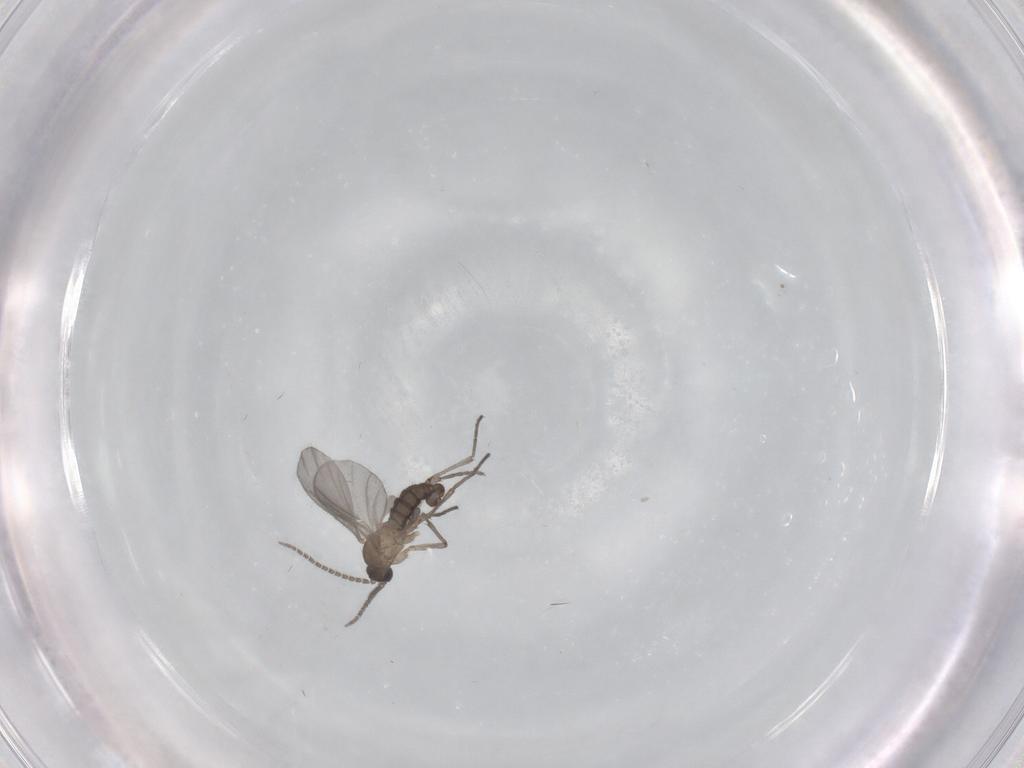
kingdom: Animalia
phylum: Arthropoda
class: Insecta
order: Diptera
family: Sciaridae
